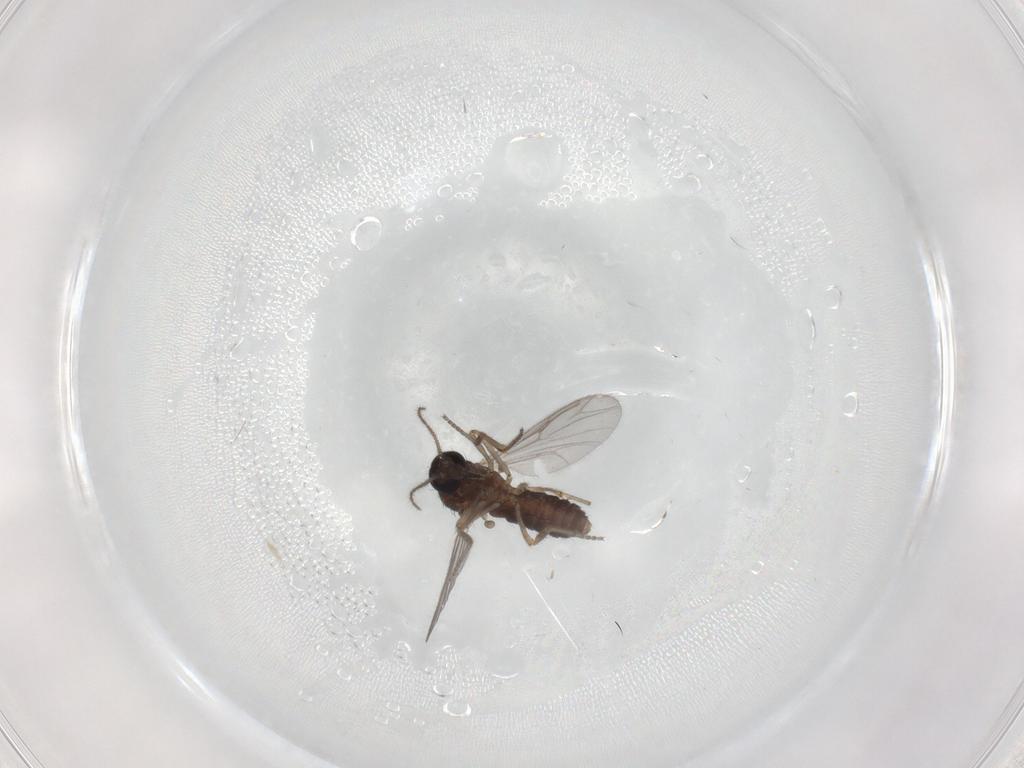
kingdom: Animalia
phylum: Arthropoda
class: Insecta
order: Diptera
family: Ceratopogonidae
